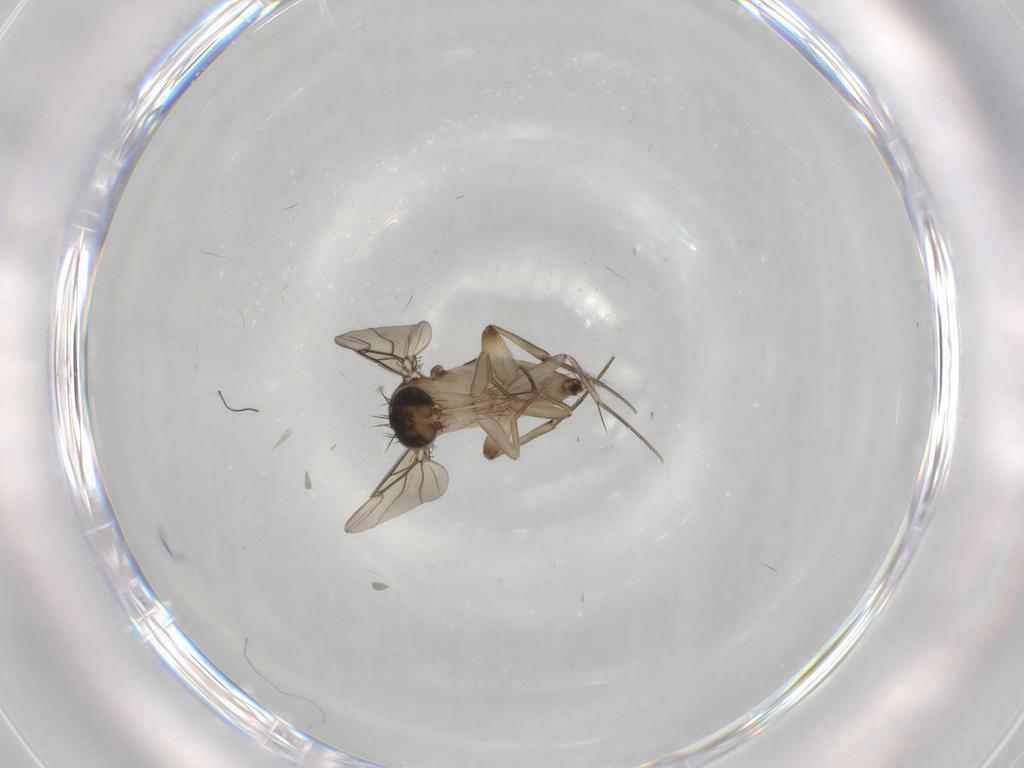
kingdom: Animalia
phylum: Arthropoda
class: Insecta
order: Diptera
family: Phoridae
